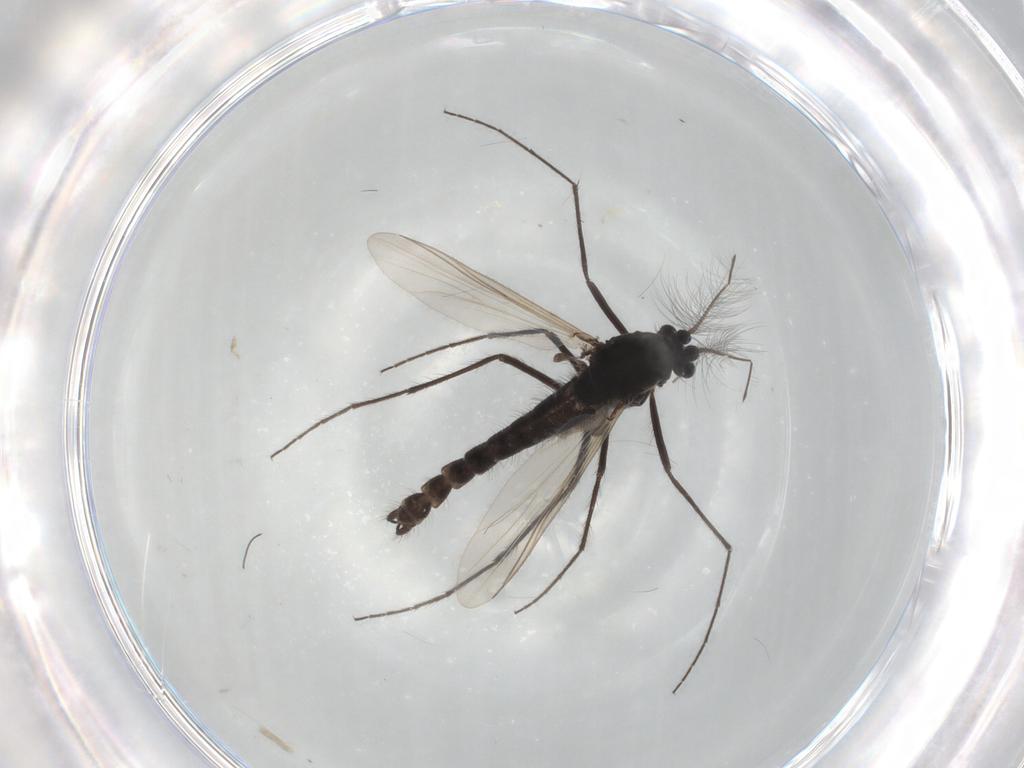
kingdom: Animalia
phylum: Arthropoda
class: Insecta
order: Diptera
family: Chironomidae
